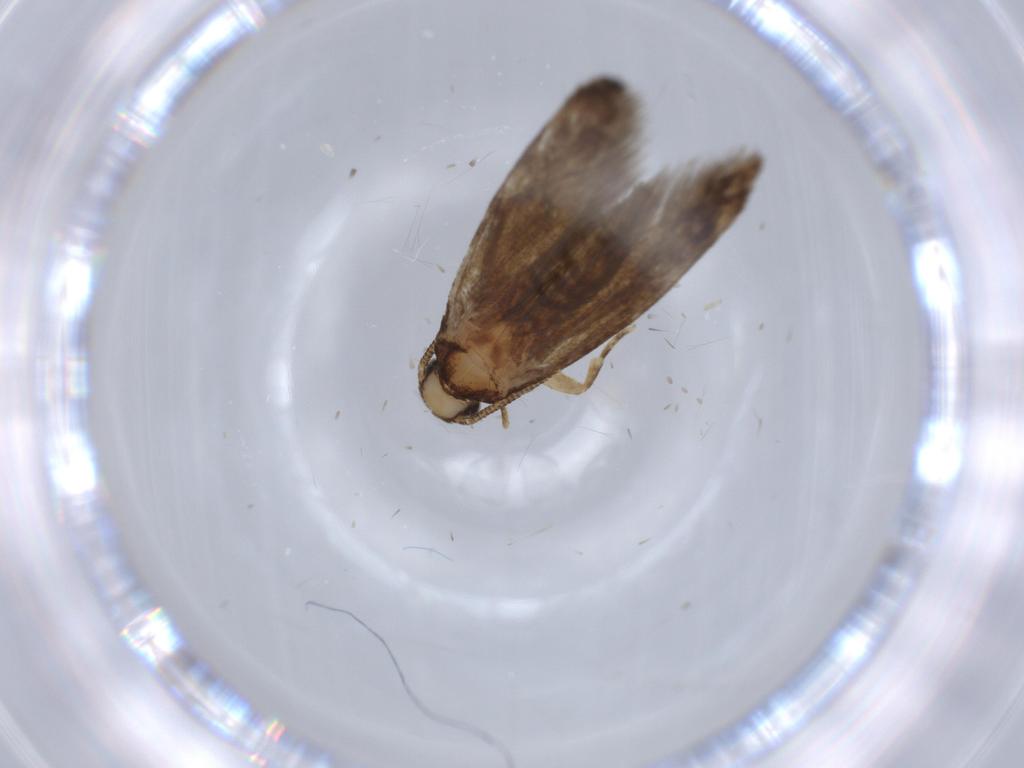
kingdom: Animalia
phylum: Arthropoda
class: Insecta
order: Lepidoptera
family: Tineidae
